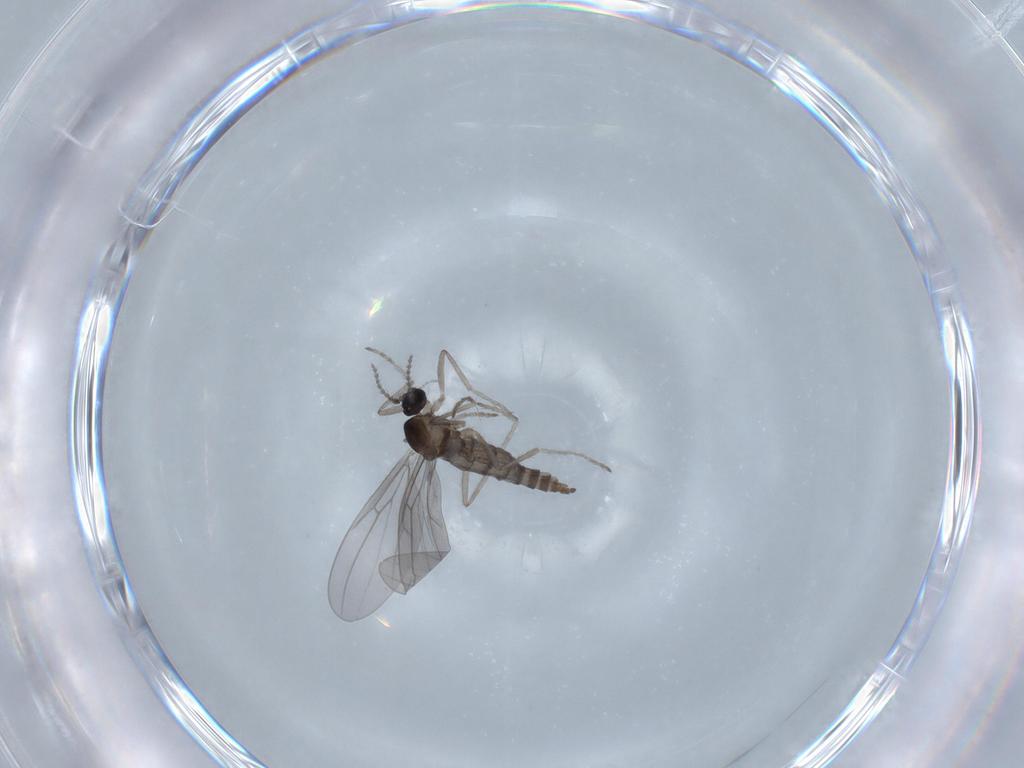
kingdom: Animalia
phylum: Arthropoda
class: Insecta
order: Diptera
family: Cecidomyiidae
